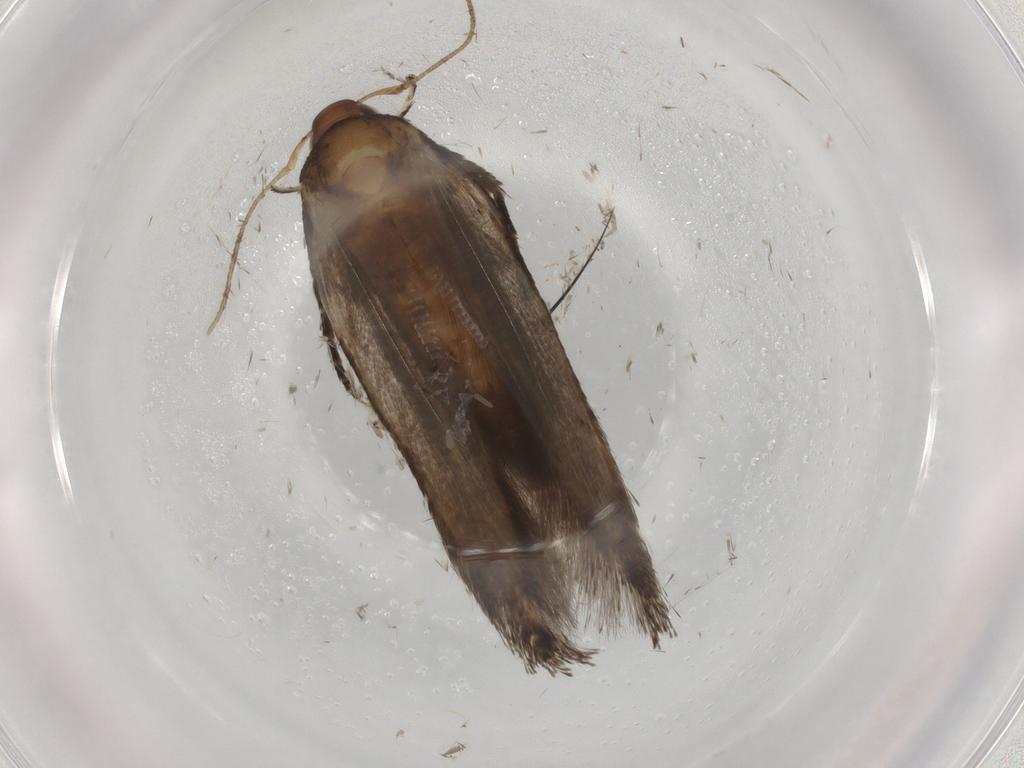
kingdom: Animalia
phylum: Arthropoda
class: Insecta
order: Lepidoptera
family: Cosmopterigidae
